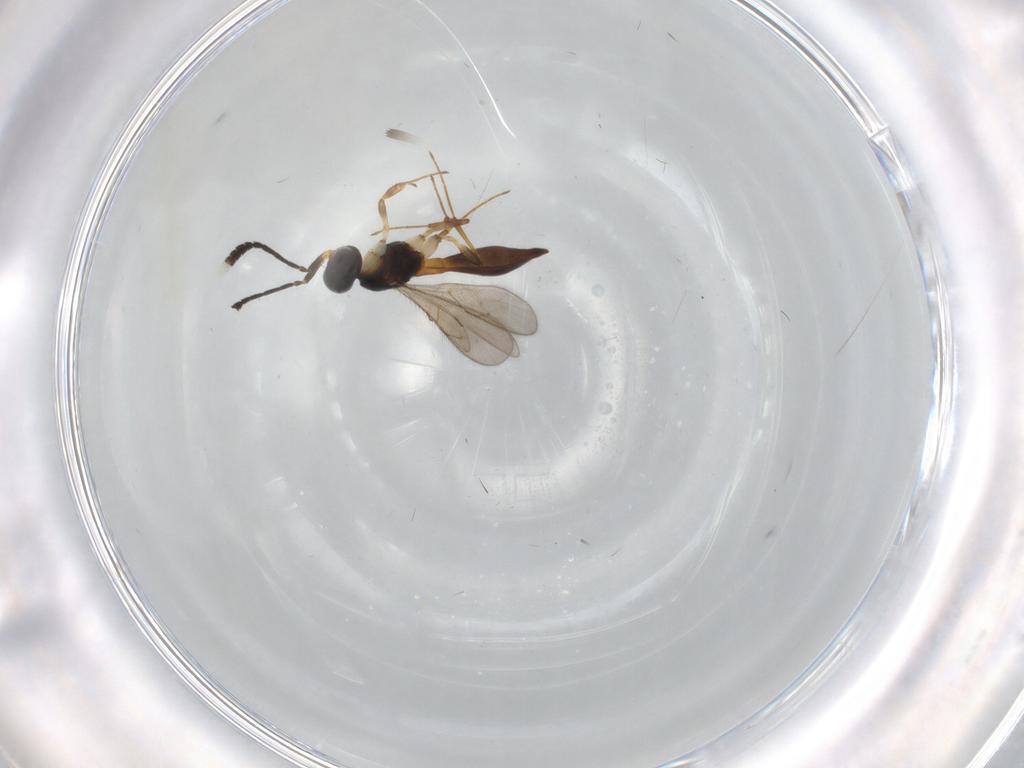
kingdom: Animalia
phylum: Arthropoda
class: Insecta
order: Hymenoptera
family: Scelionidae
